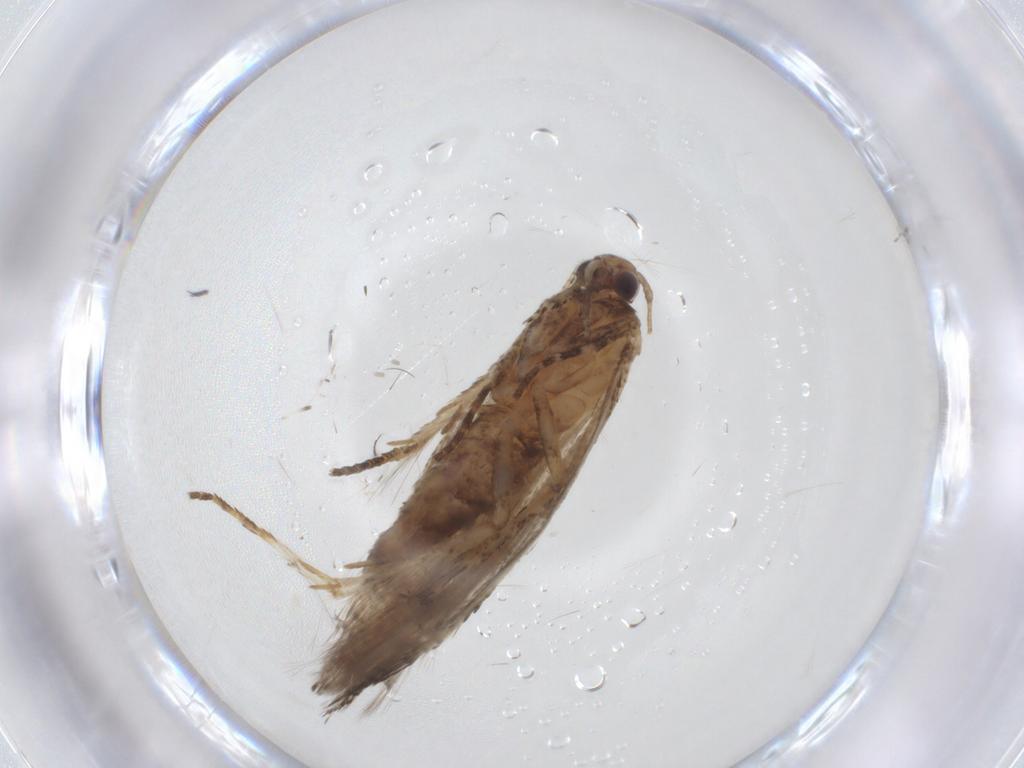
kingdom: Animalia
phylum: Arthropoda
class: Insecta
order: Lepidoptera
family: Gelechiidae
